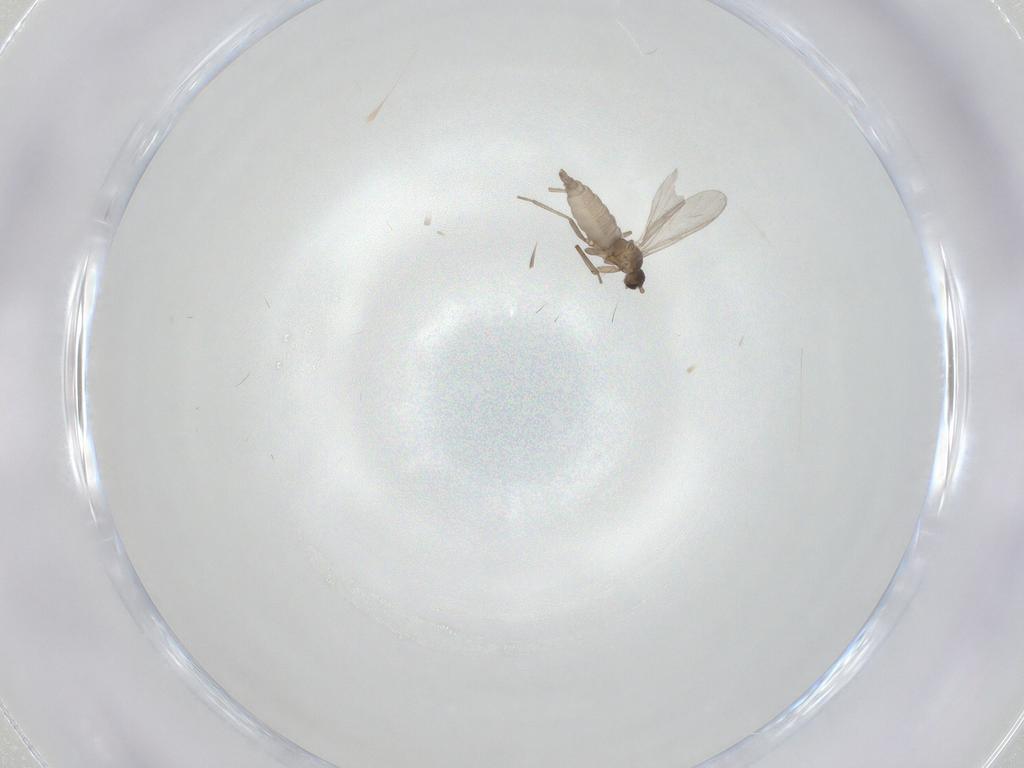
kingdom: Animalia
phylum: Arthropoda
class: Insecta
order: Diptera
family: Chironomidae
